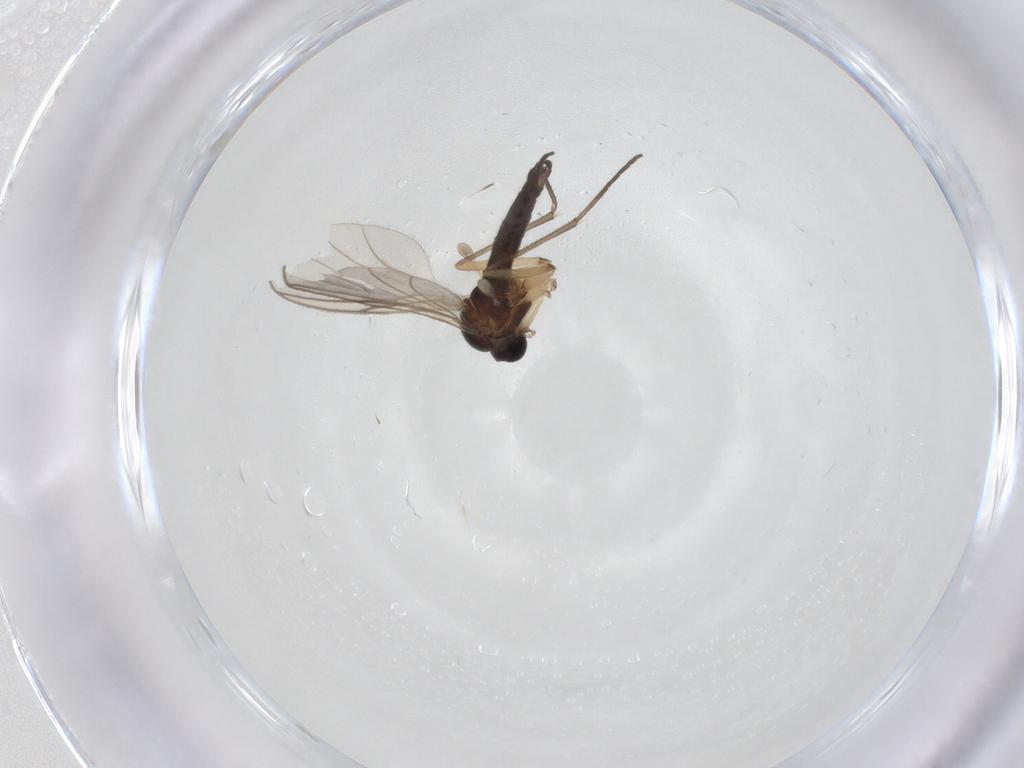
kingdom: Animalia
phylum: Arthropoda
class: Insecta
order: Diptera
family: Sciaridae
